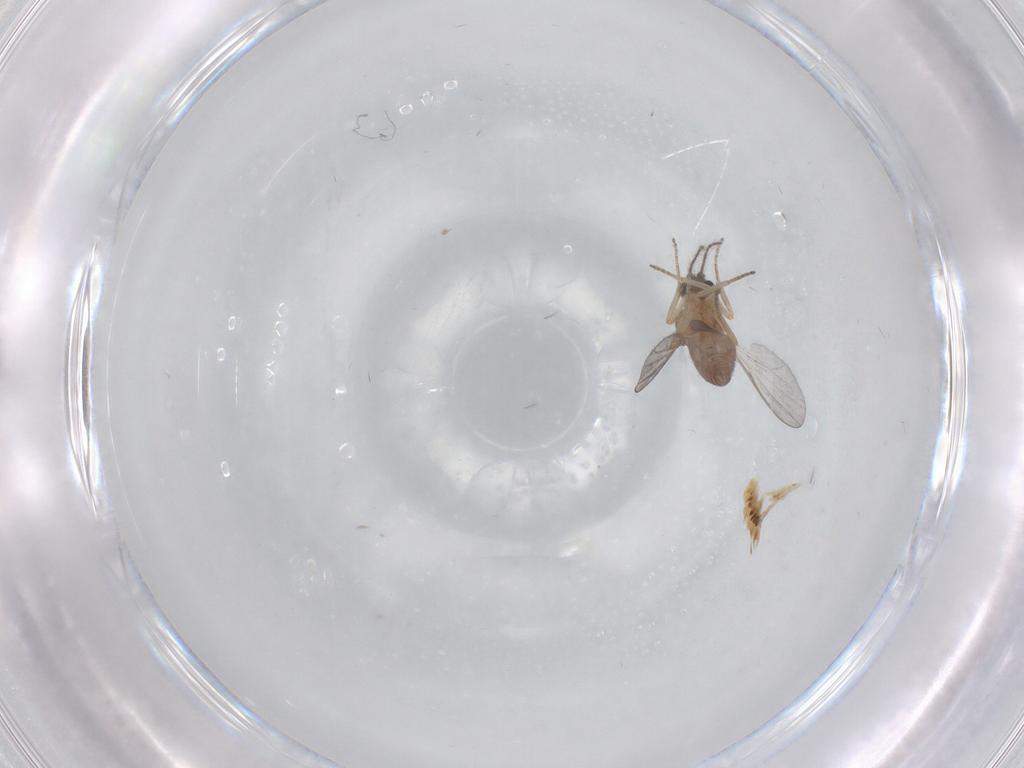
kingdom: Animalia
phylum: Arthropoda
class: Insecta
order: Diptera
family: Ceratopogonidae
